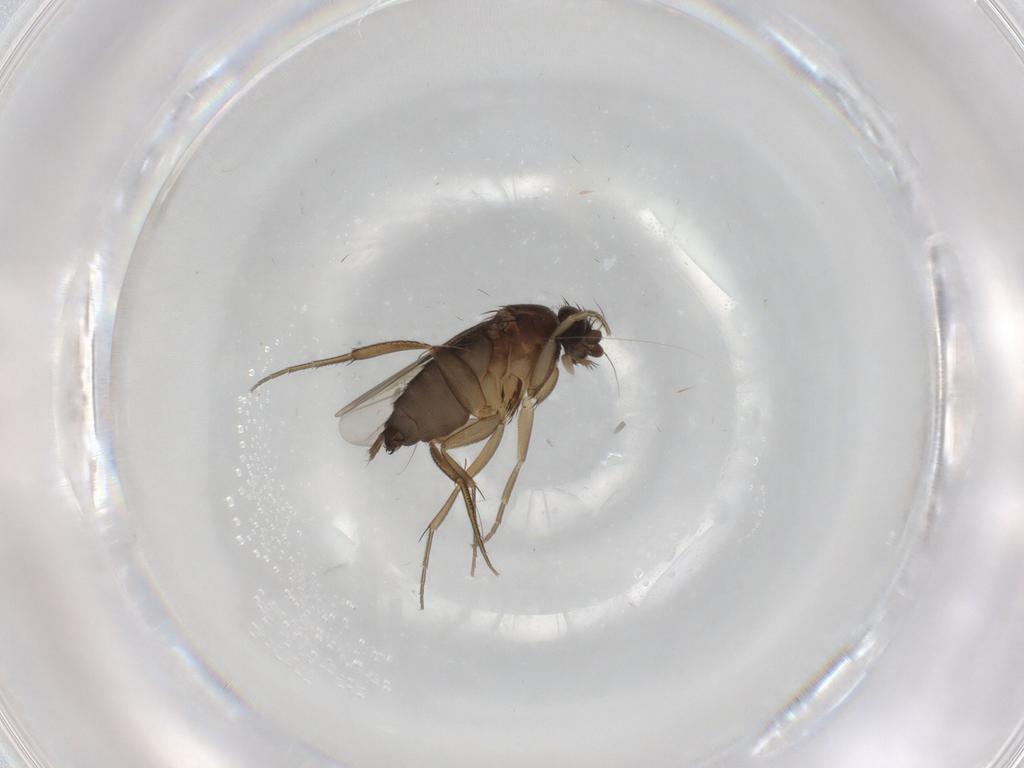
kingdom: Animalia
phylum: Arthropoda
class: Insecta
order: Diptera
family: Phoridae
